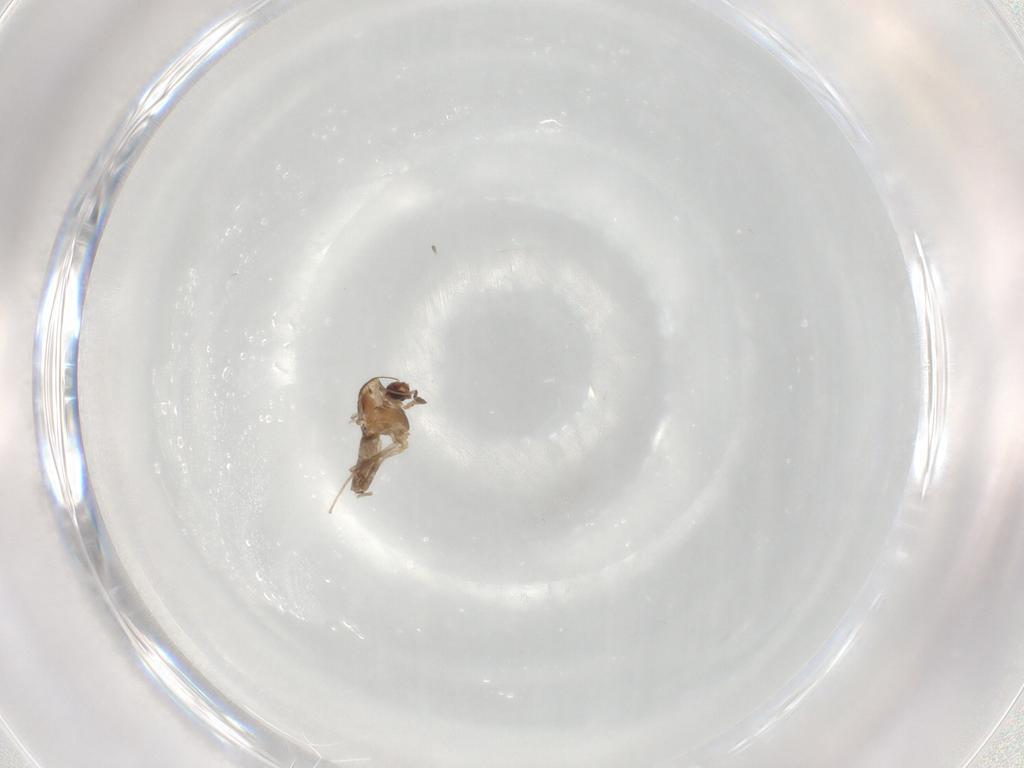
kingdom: Animalia
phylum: Arthropoda
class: Insecta
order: Diptera
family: Chironomidae
